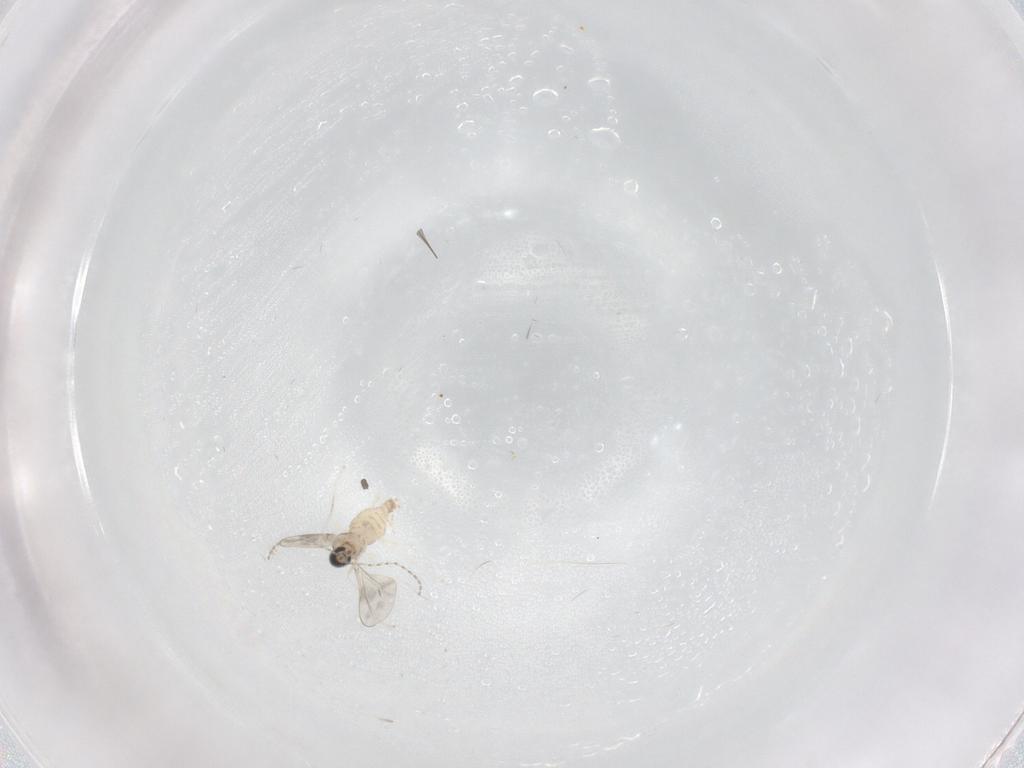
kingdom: Animalia
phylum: Arthropoda
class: Insecta
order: Diptera
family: Cecidomyiidae
